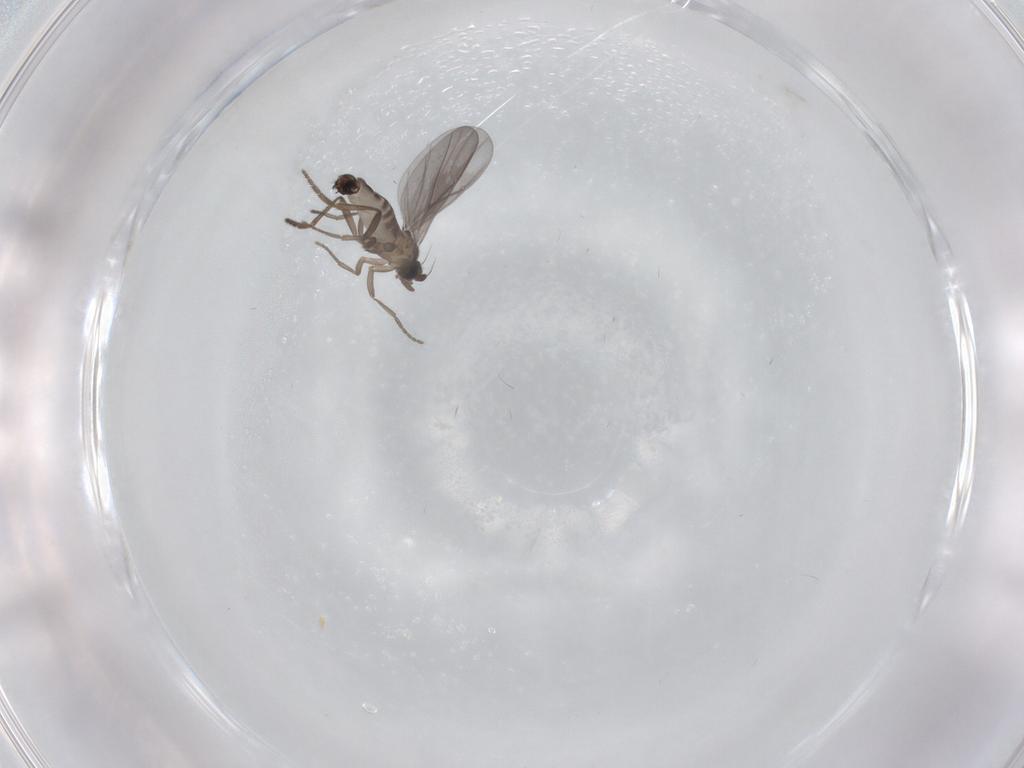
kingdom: Animalia
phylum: Arthropoda
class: Insecta
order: Diptera
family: Phoridae
